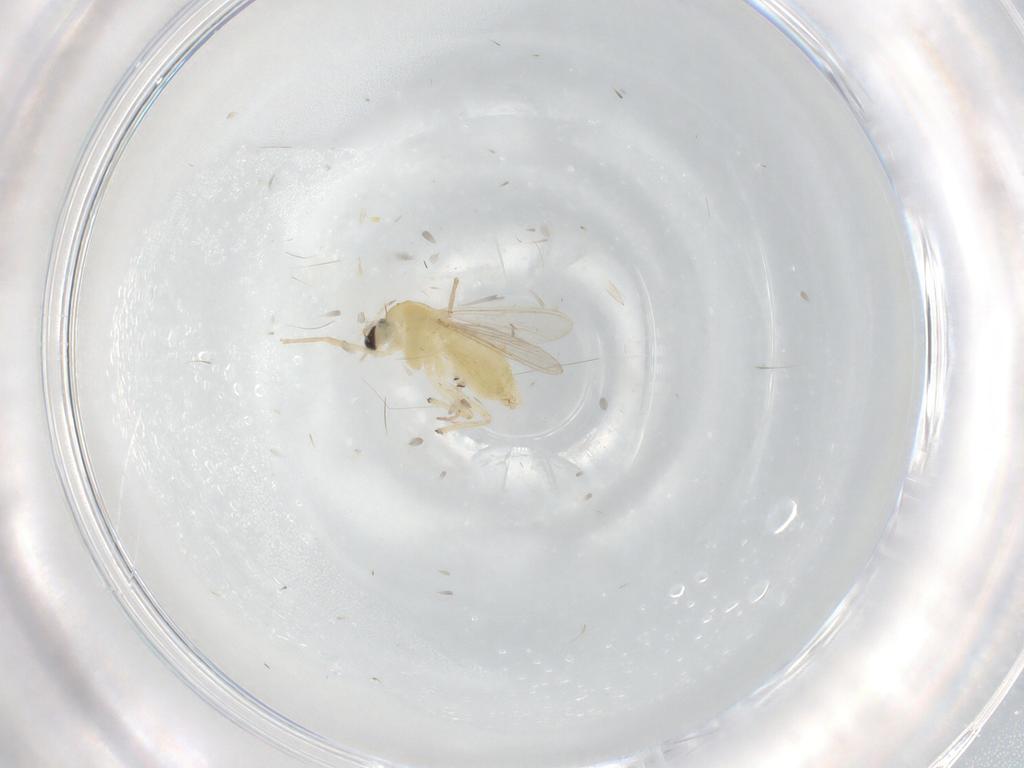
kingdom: Animalia
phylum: Arthropoda
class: Insecta
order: Diptera
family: Chironomidae
